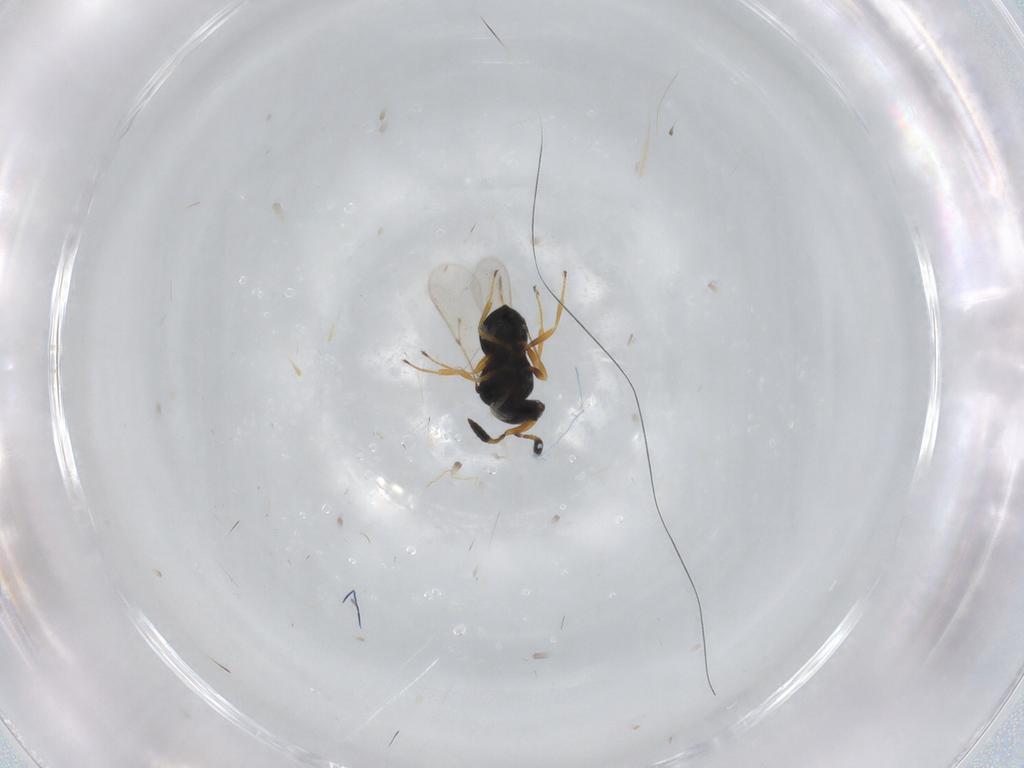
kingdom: Animalia
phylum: Arthropoda
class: Insecta
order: Hymenoptera
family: Scelionidae
